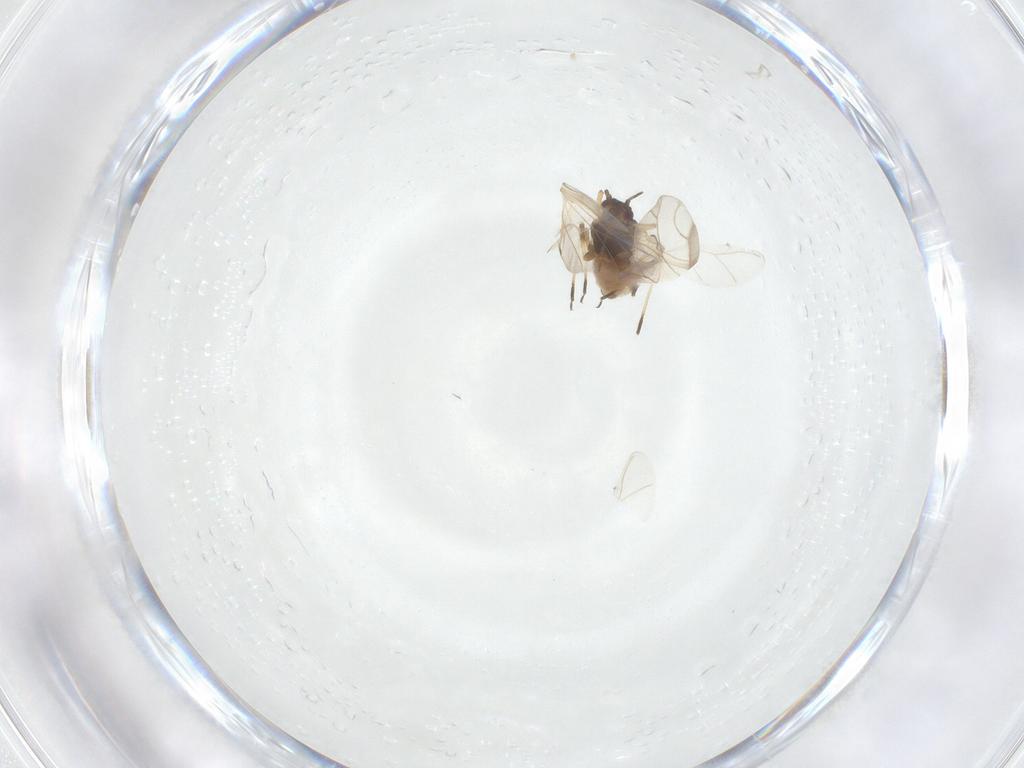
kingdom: Animalia
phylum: Arthropoda
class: Insecta
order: Hemiptera
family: Aphididae
